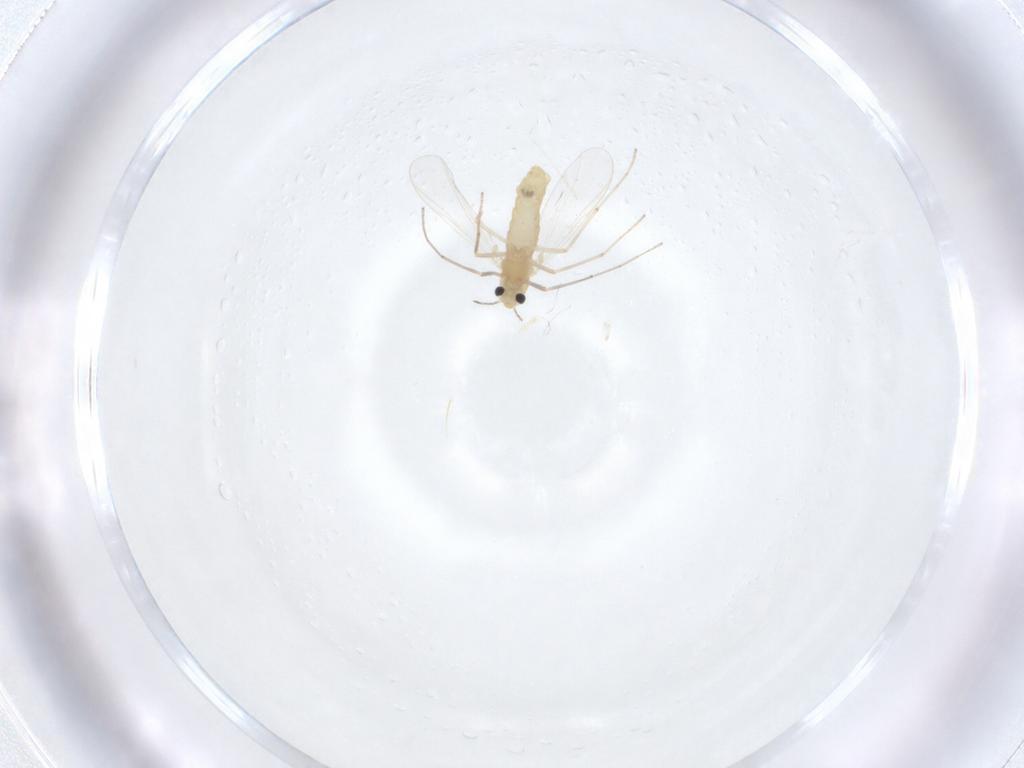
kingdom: Animalia
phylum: Arthropoda
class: Insecta
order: Diptera
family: Chironomidae
